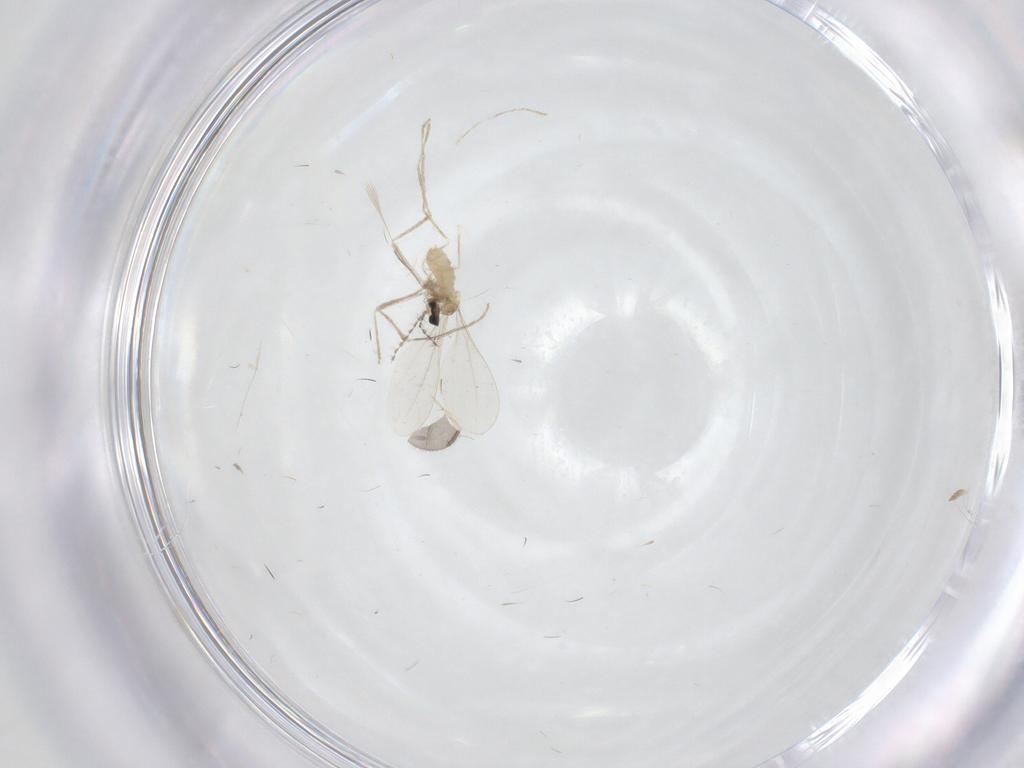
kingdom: Animalia
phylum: Arthropoda
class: Insecta
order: Diptera
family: Cecidomyiidae
